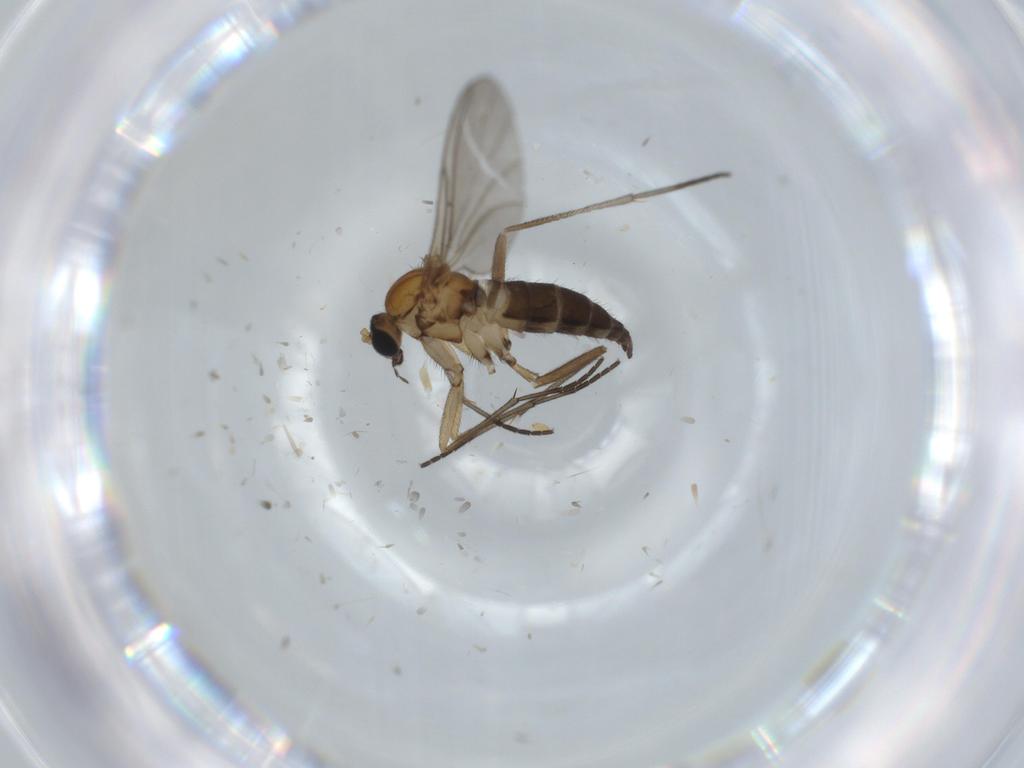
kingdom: Animalia
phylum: Arthropoda
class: Insecta
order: Diptera
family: Sciaridae
